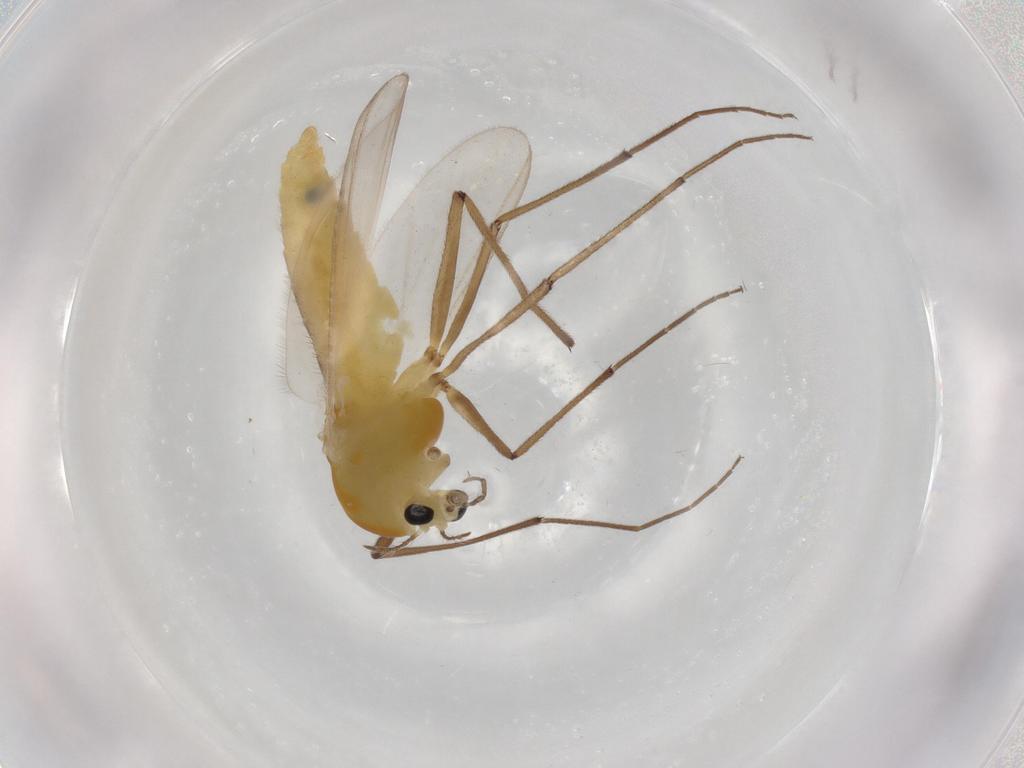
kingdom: Animalia
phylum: Arthropoda
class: Insecta
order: Diptera
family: Chironomidae
